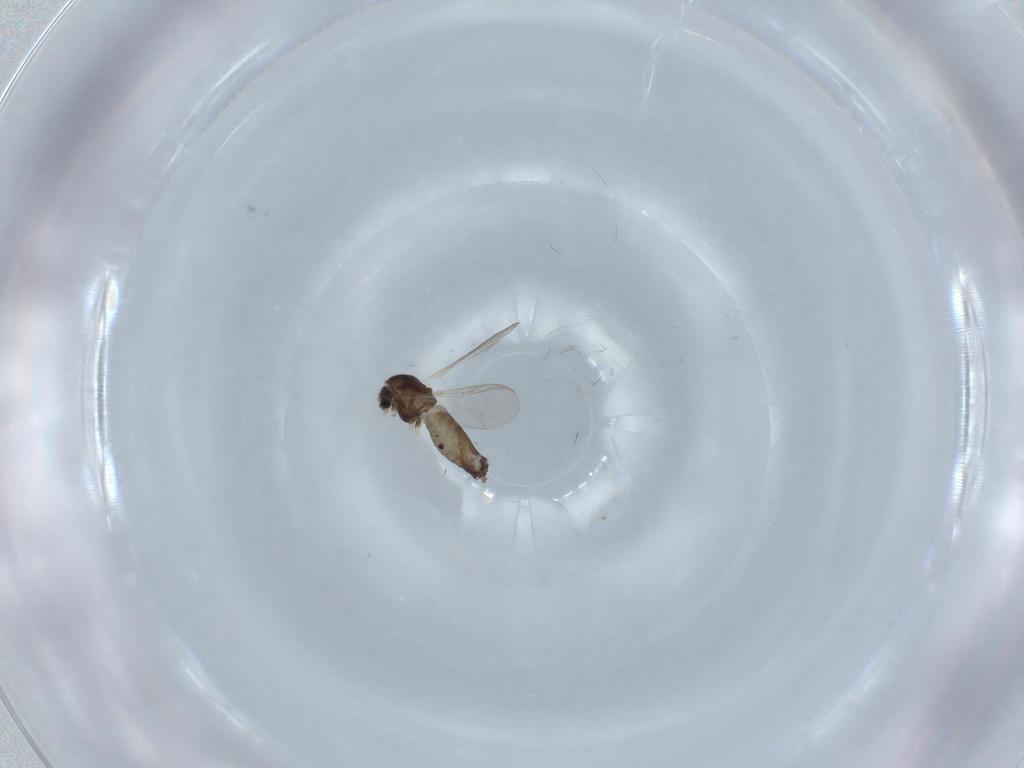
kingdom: Animalia
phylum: Arthropoda
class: Insecta
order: Diptera
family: Chironomidae
